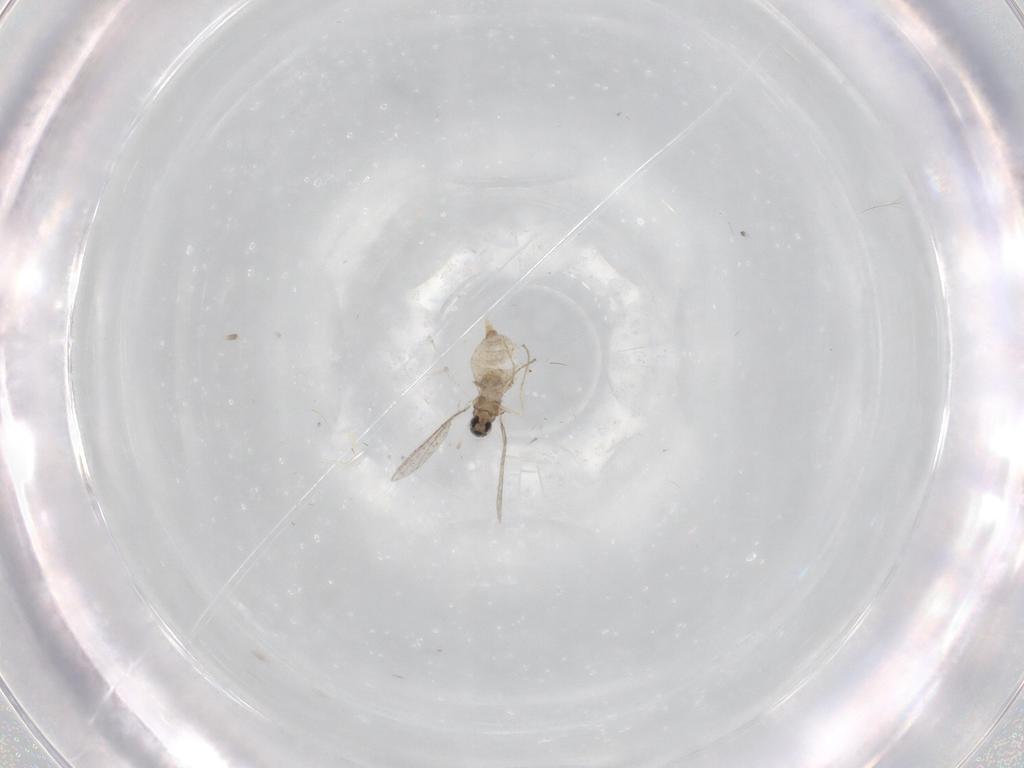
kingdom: Animalia
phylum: Arthropoda
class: Insecta
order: Diptera
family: Cecidomyiidae
